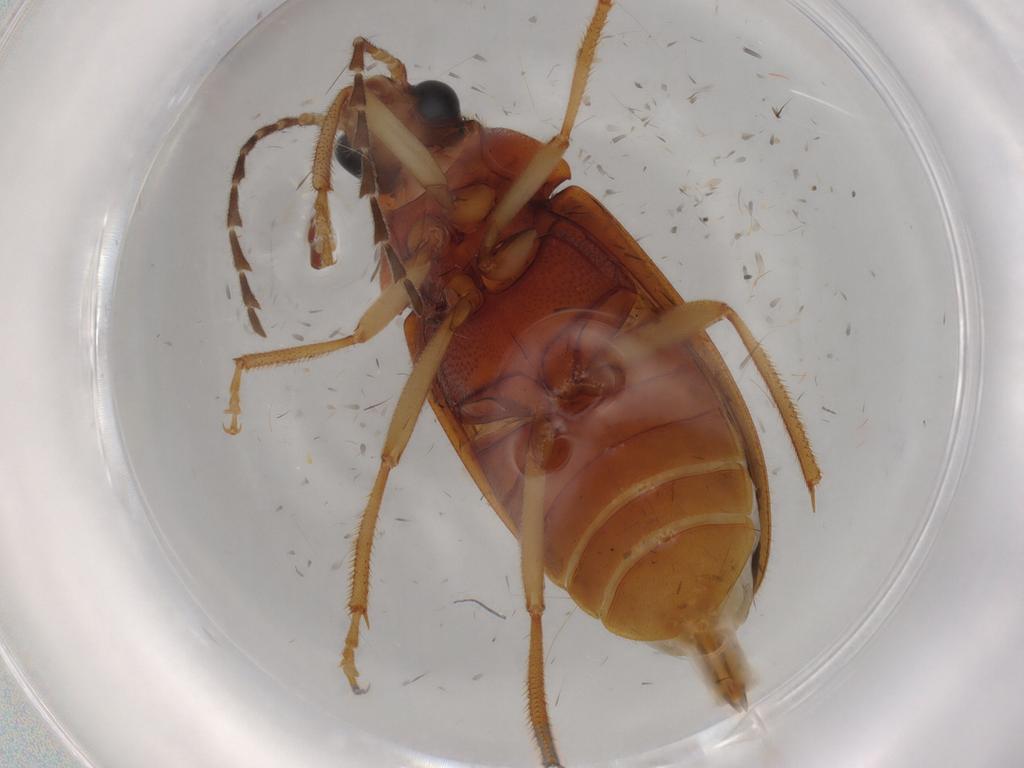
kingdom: Animalia
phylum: Arthropoda
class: Insecta
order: Coleoptera
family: Ptilodactylidae
